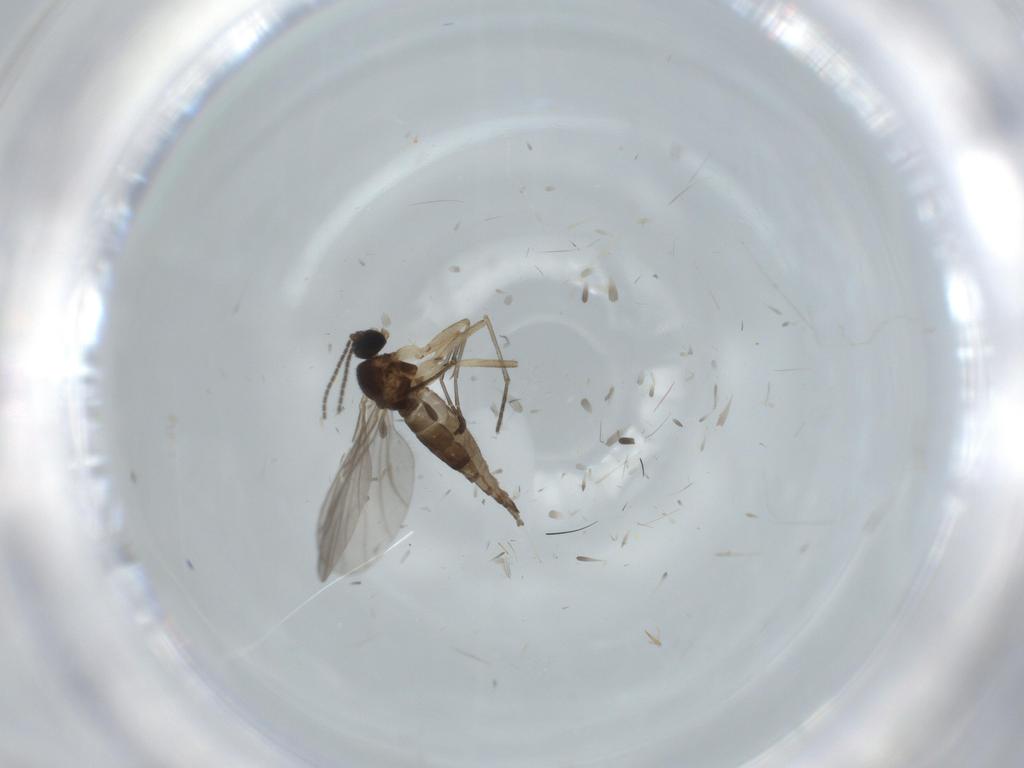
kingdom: Animalia
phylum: Arthropoda
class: Insecta
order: Diptera
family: Sciaridae
